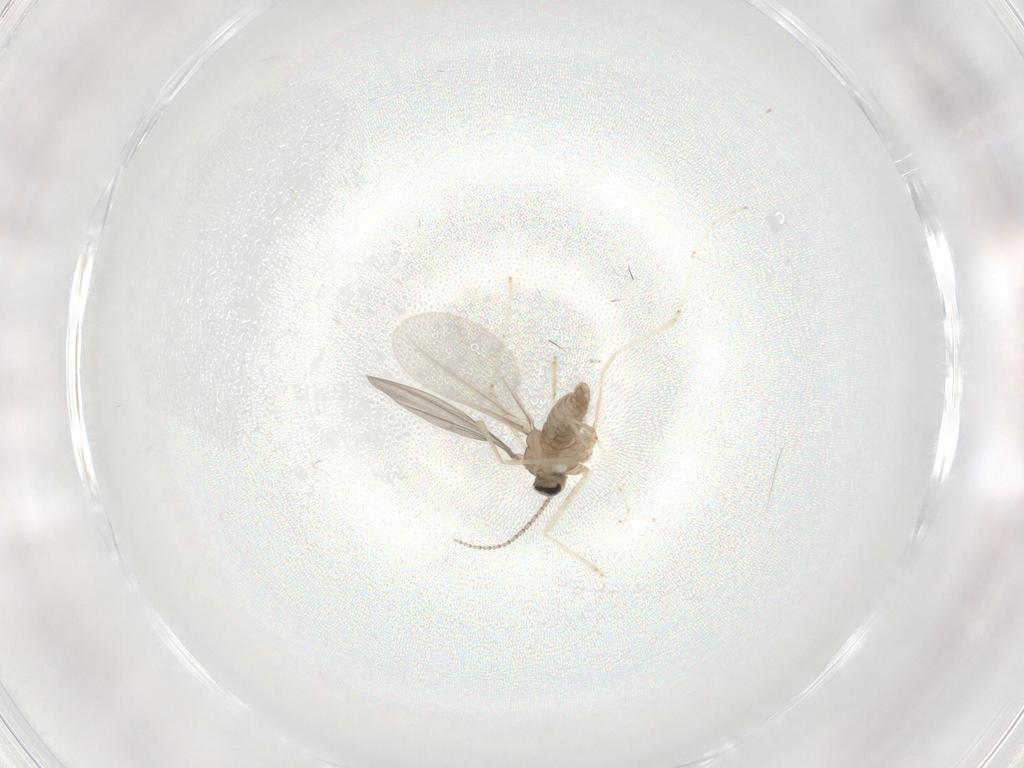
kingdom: Animalia
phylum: Arthropoda
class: Insecta
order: Diptera
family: Cecidomyiidae
